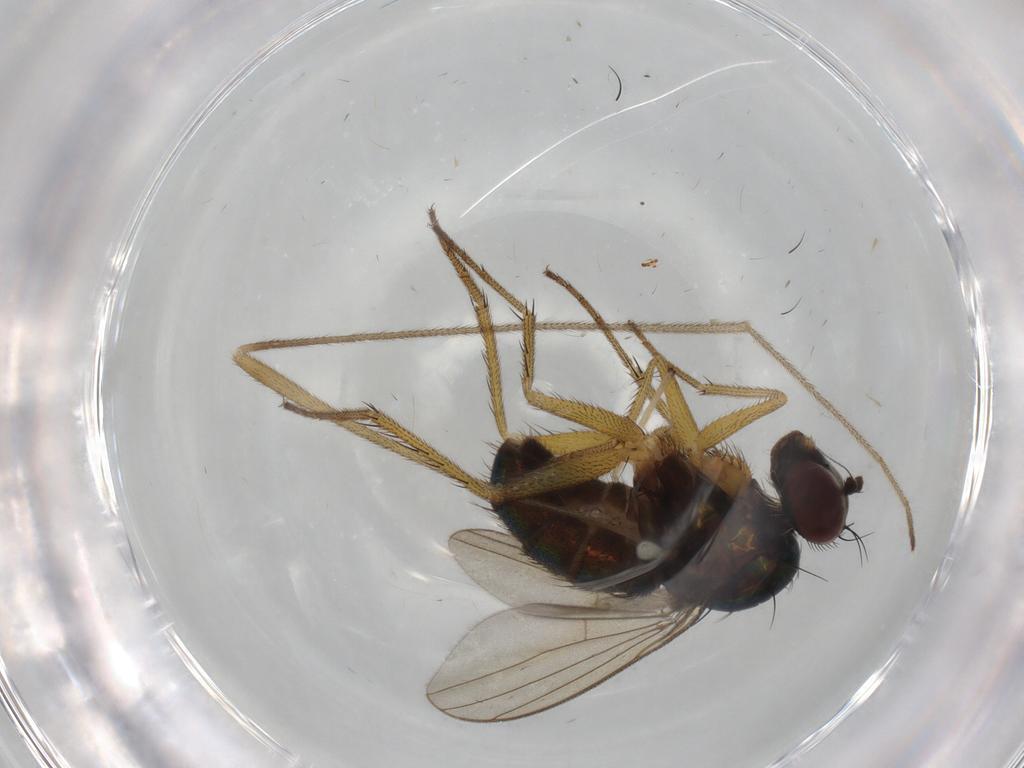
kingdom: Animalia
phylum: Arthropoda
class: Insecta
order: Diptera
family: Dolichopodidae
